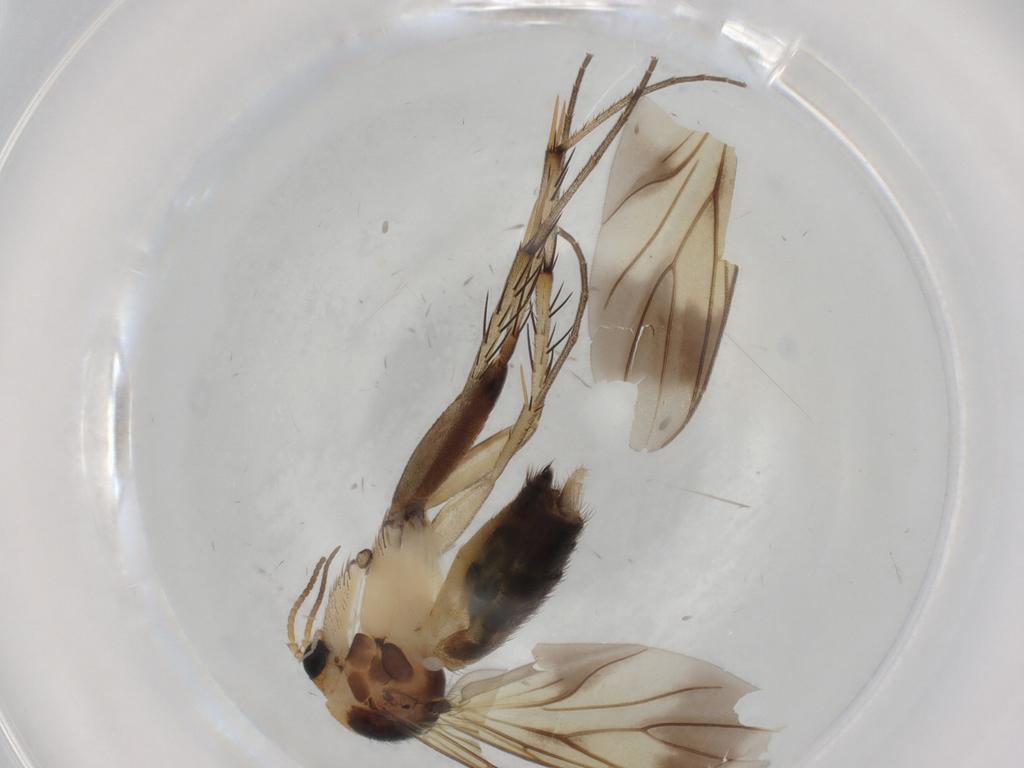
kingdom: Animalia
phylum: Arthropoda
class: Insecta
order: Diptera
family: Mycetophilidae
